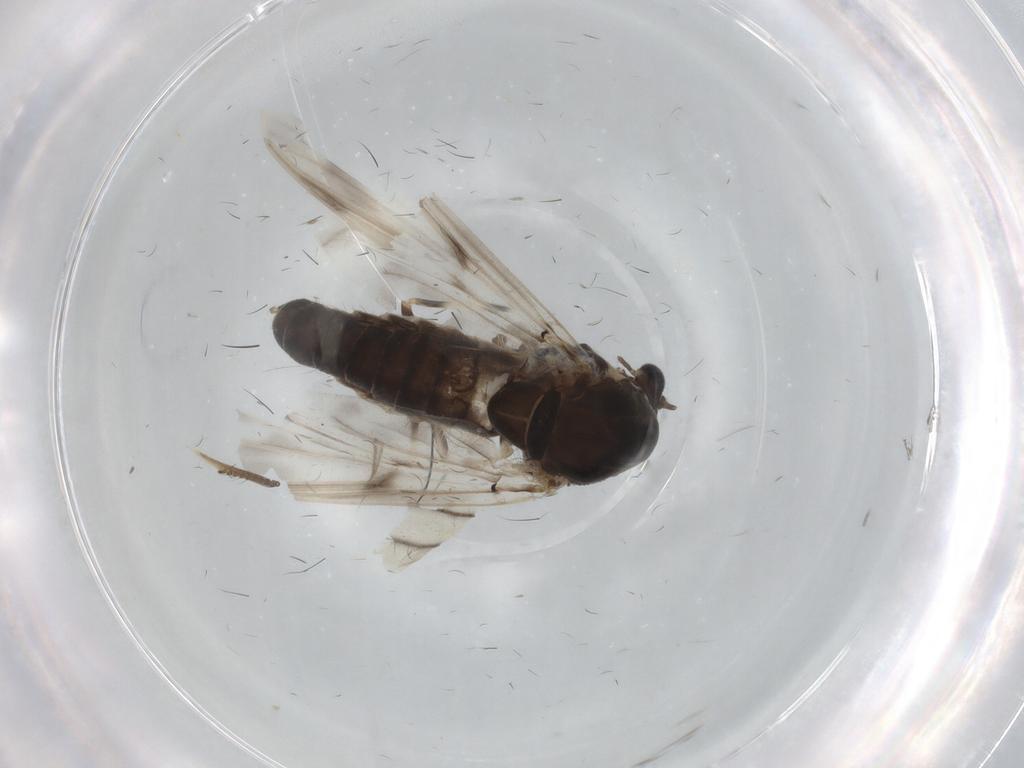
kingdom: Animalia
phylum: Arthropoda
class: Insecta
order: Diptera
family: Chironomidae
